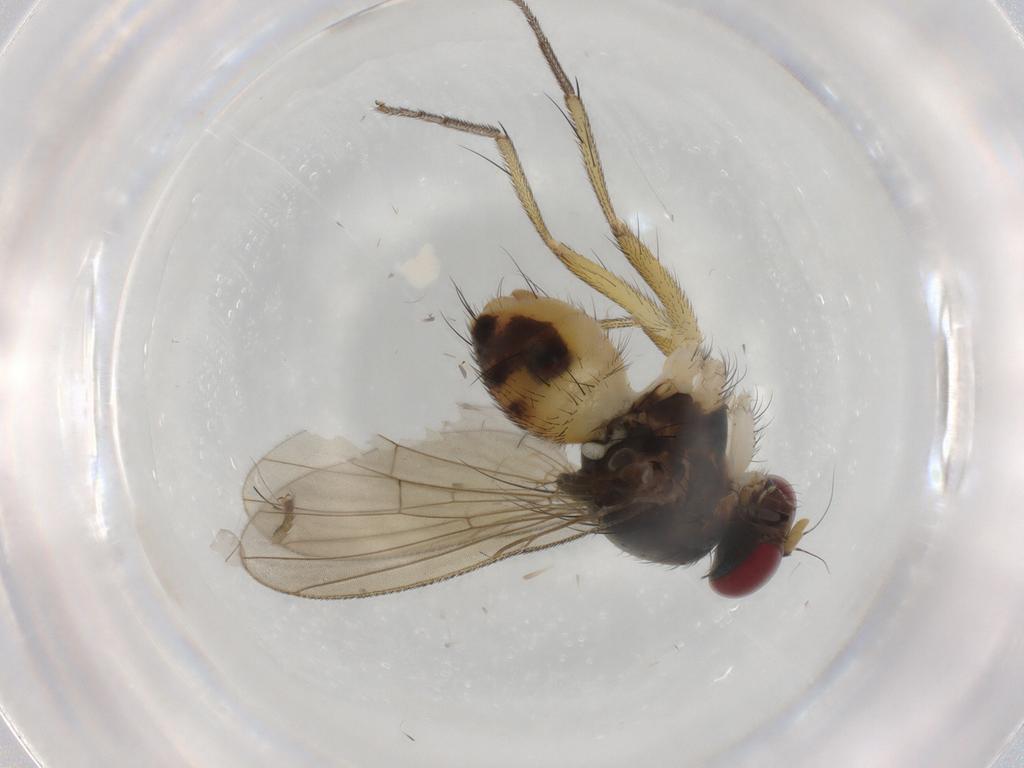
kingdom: Animalia
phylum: Arthropoda
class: Insecta
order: Diptera
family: Muscidae
